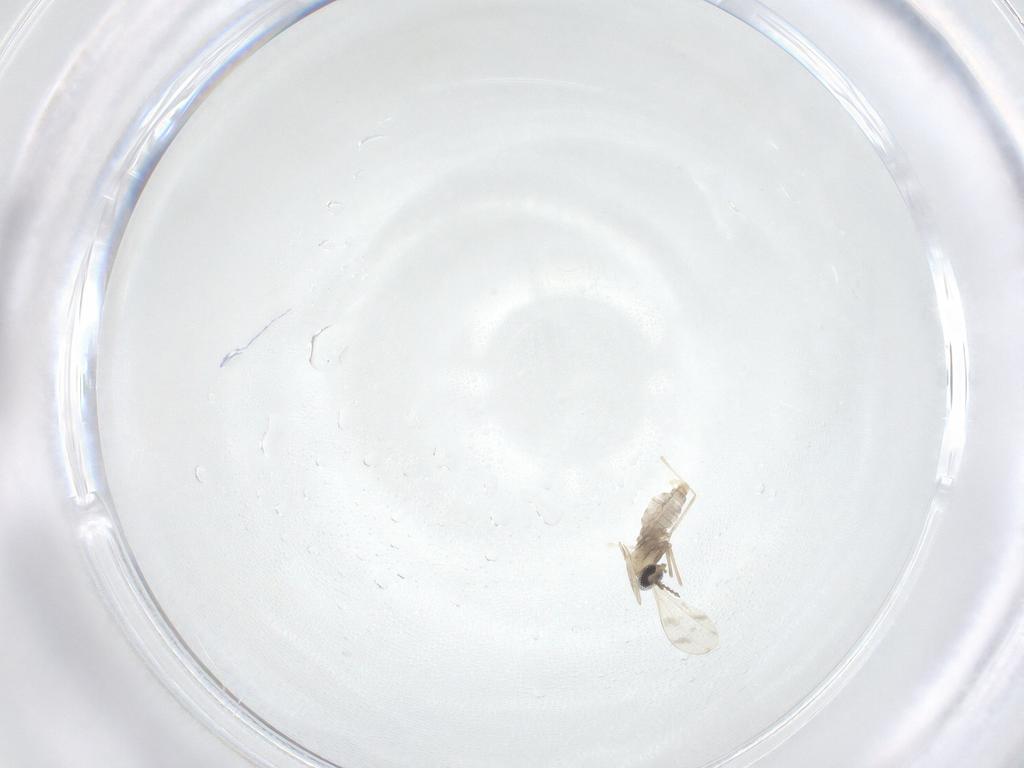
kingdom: Animalia
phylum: Arthropoda
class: Insecta
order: Diptera
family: Cecidomyiidae
